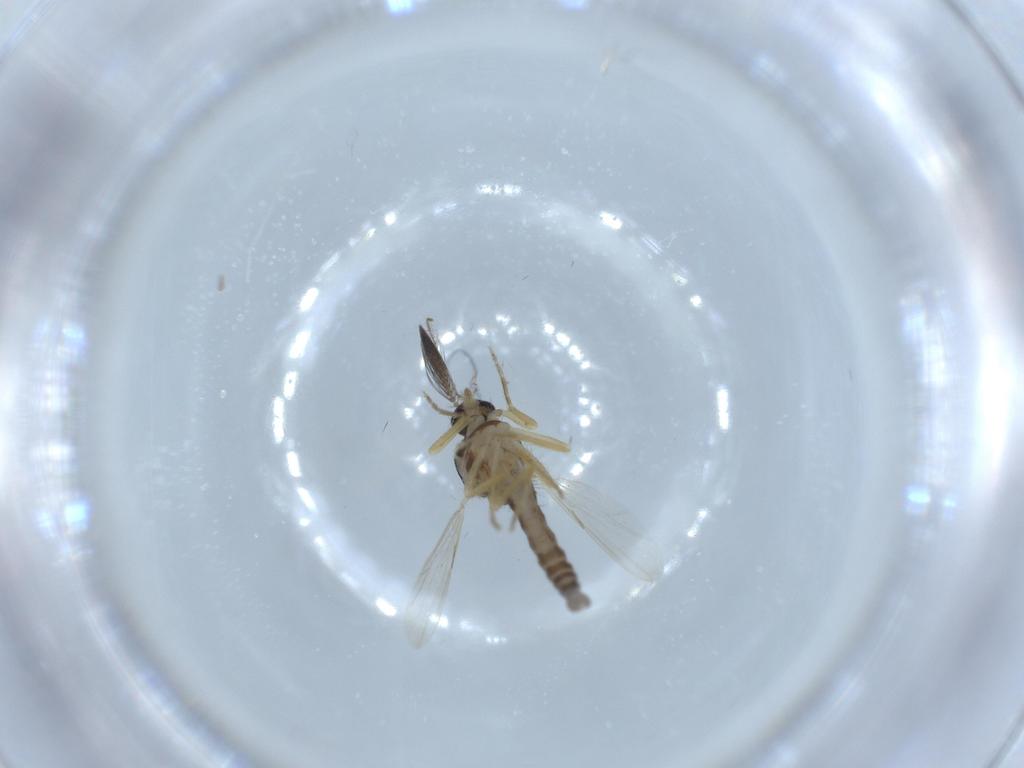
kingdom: Animalia
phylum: Arthropoda
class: Insecta
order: Diptera
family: Ceratopogonidae
